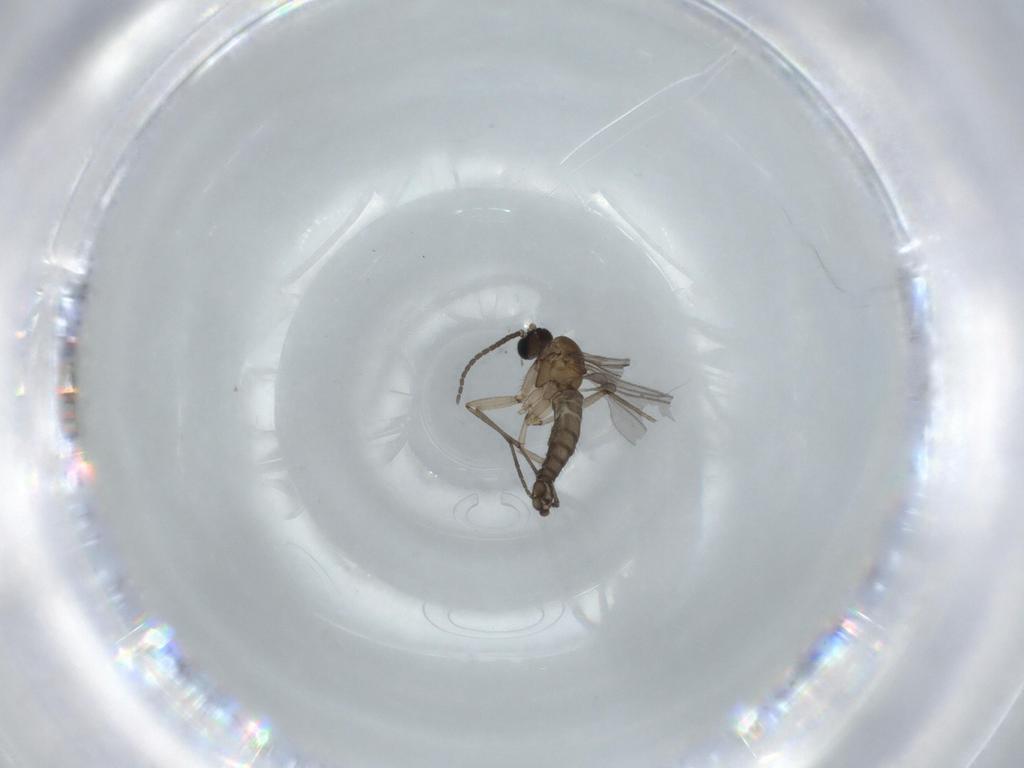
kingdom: Animalia
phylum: Arthropoda
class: Insecta
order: Diptera
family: Sciaridae
